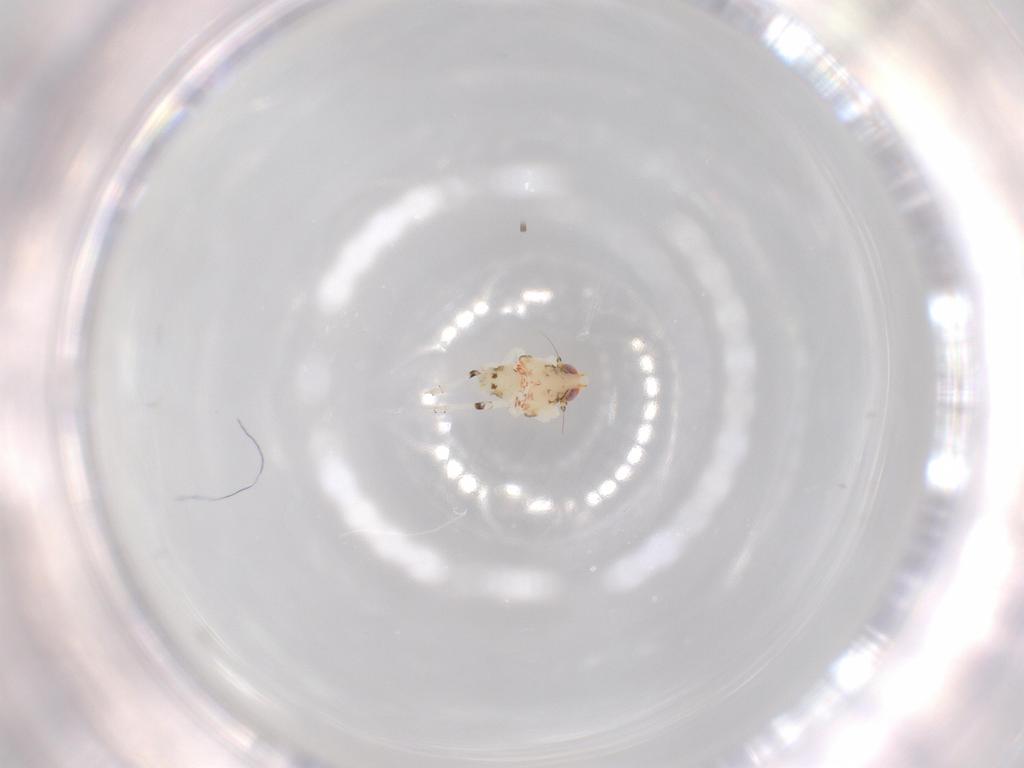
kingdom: Animalia
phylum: Arthropoda
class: Insecta
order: Hemiptera
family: Nogodinidae
